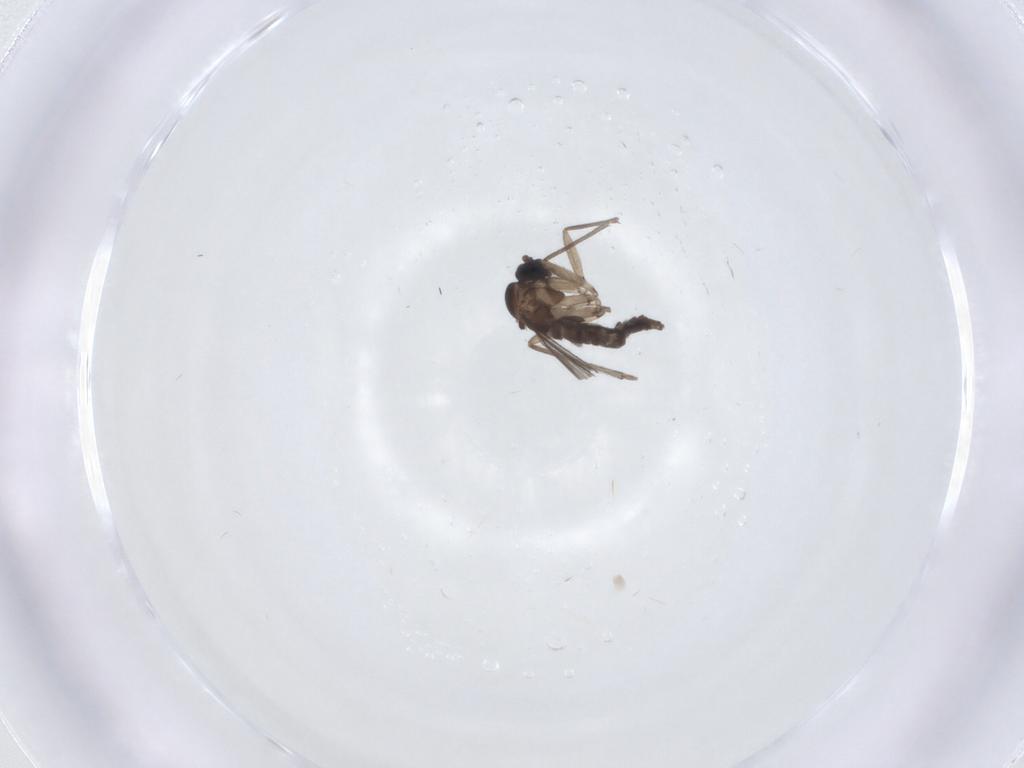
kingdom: Animalia
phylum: Arthropoda
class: Insecta
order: Diptera
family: Sciaridae
